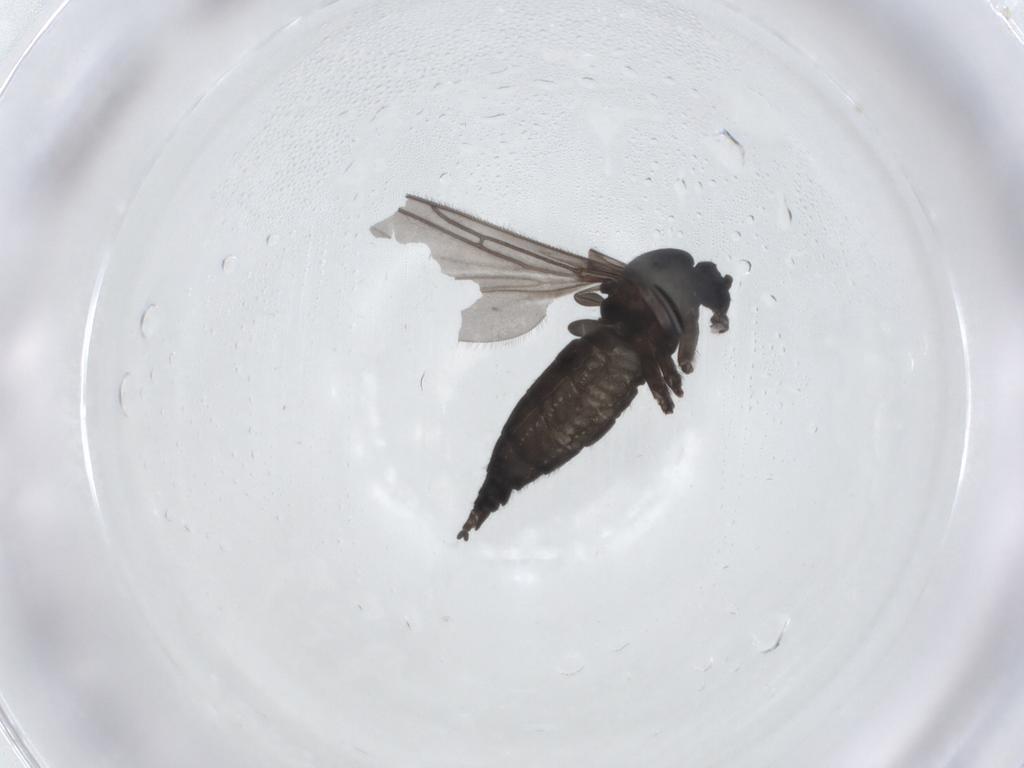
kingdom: Animalia
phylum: Arthropoda
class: Insecta
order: Diptera
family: Sciaridae
